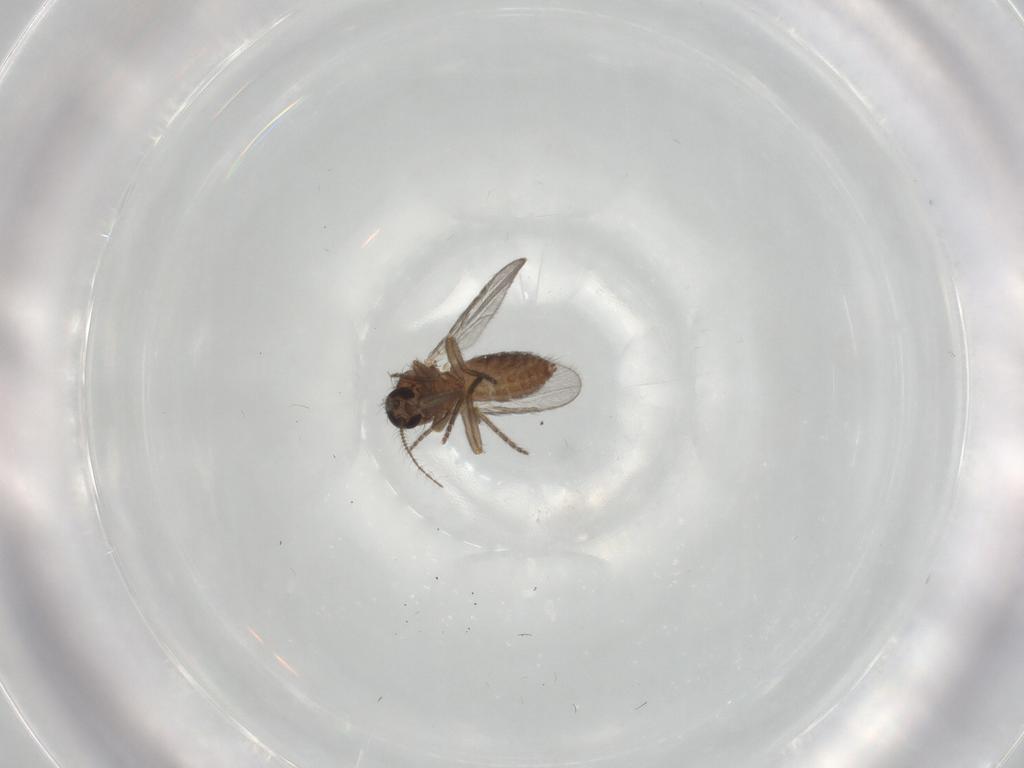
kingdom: Animalia
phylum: Arthropoda
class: Insecta
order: Diptera
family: Ceratopogonidae
